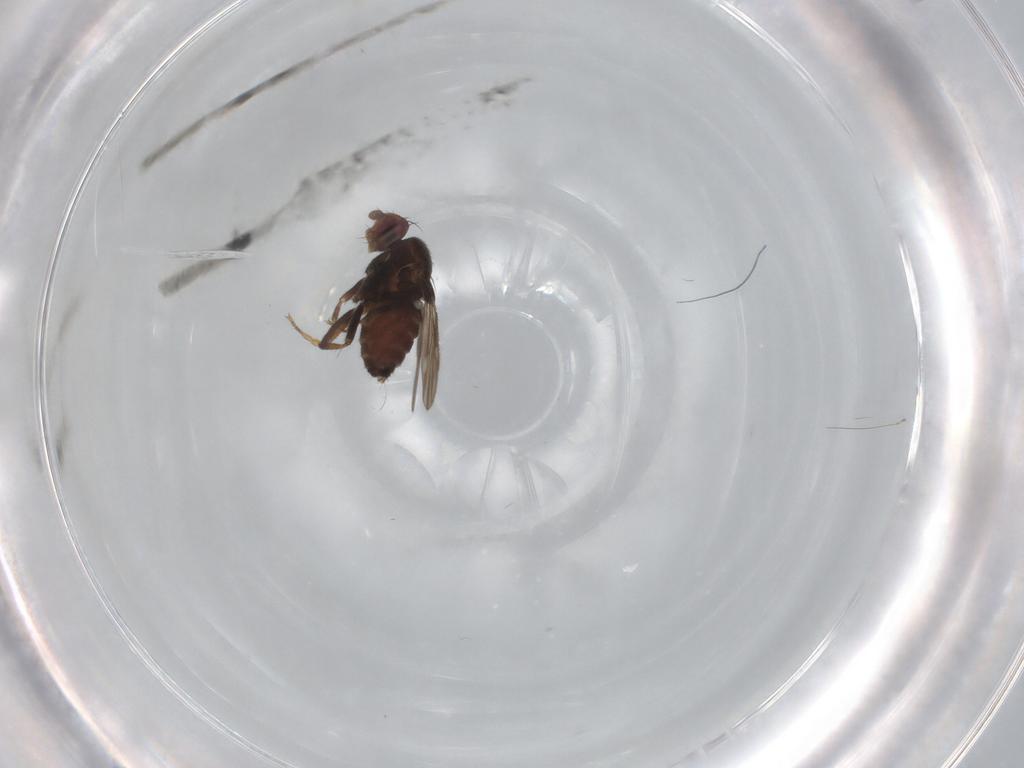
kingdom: Animalia
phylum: Arthropoda
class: Insecta
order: Diptera
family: Sphaeroceridae
